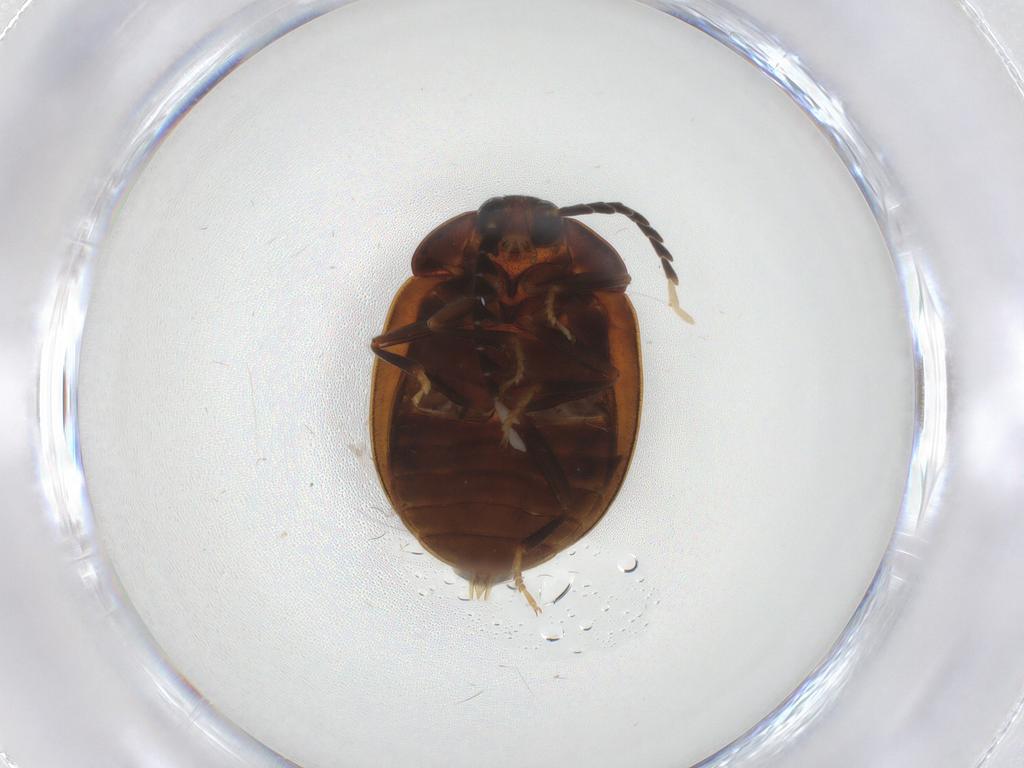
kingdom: Animalia
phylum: Arthropoda
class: Insecta
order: Coleoptera
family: Psephenidae
